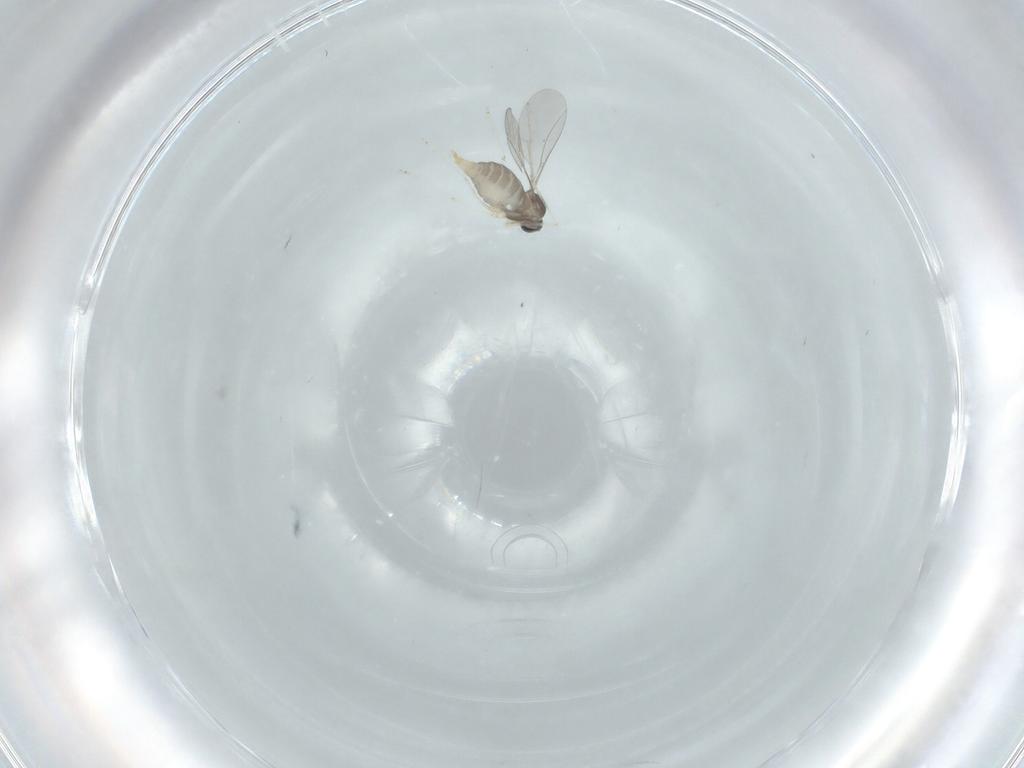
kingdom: Animalia
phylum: Arthropoda
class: Insecta
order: Diptera
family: Cecidomyiidae
